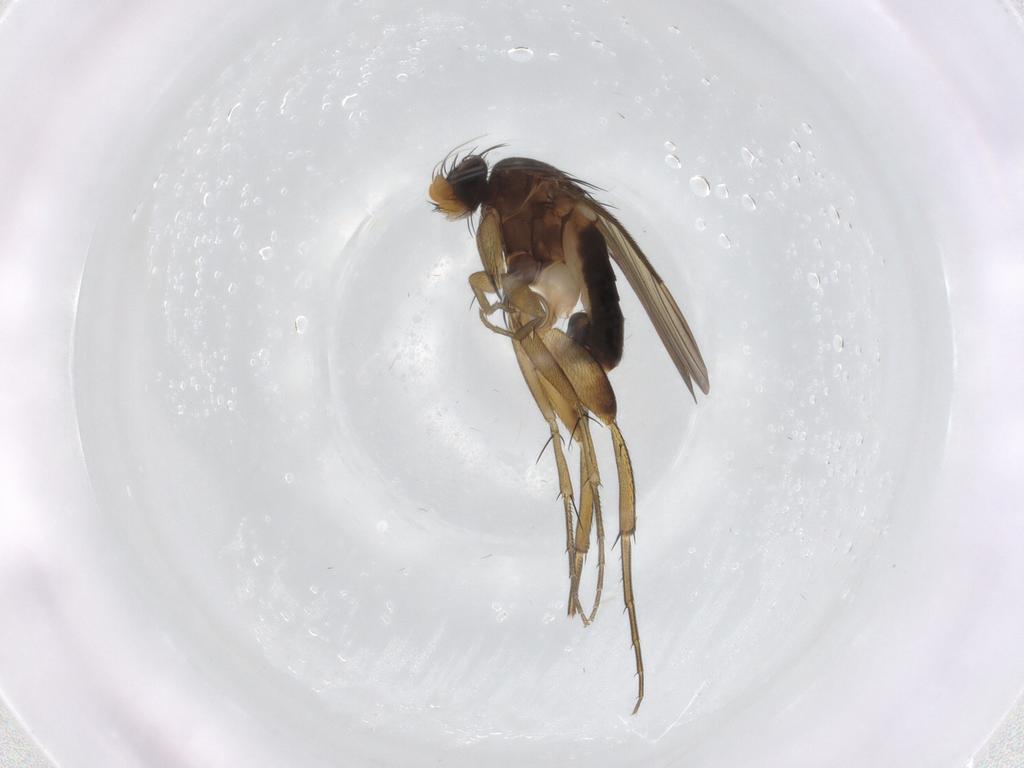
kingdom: Animalia
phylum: Arthropoda
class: Insecta
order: Diptera
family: Phoridae
